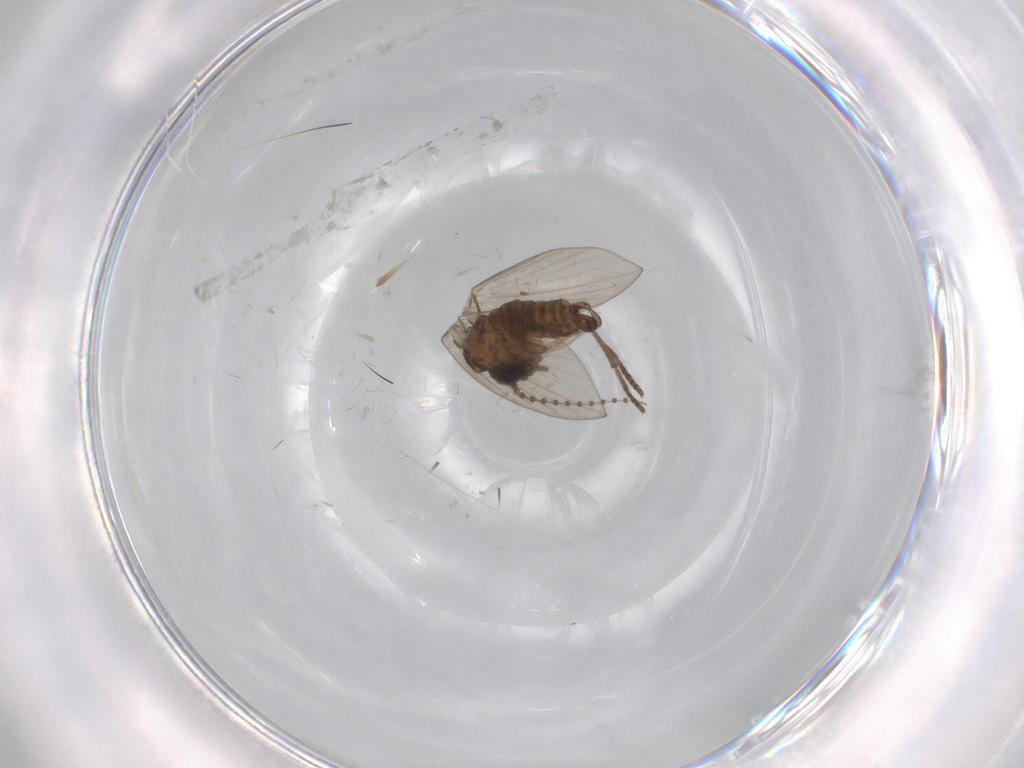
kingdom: Animalia
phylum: Arthropoda
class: Insecta
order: Diptera
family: Psychodidae
